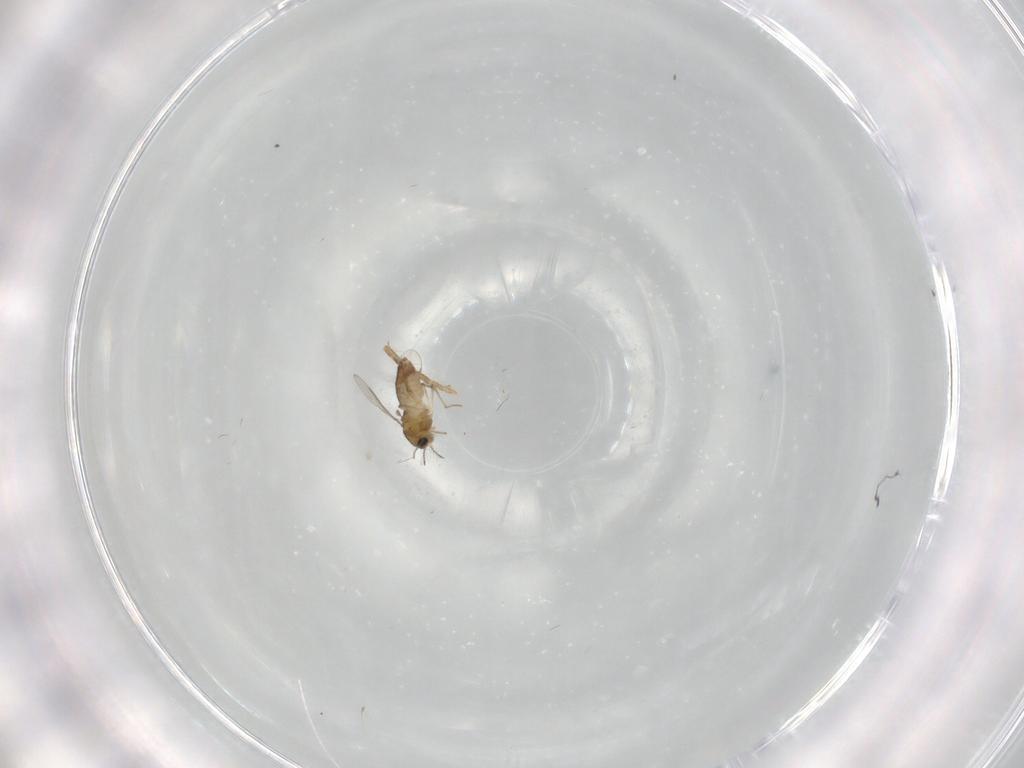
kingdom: Animalia
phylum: Arthropoda
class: Insecta
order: Diptera
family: Chironomidae
